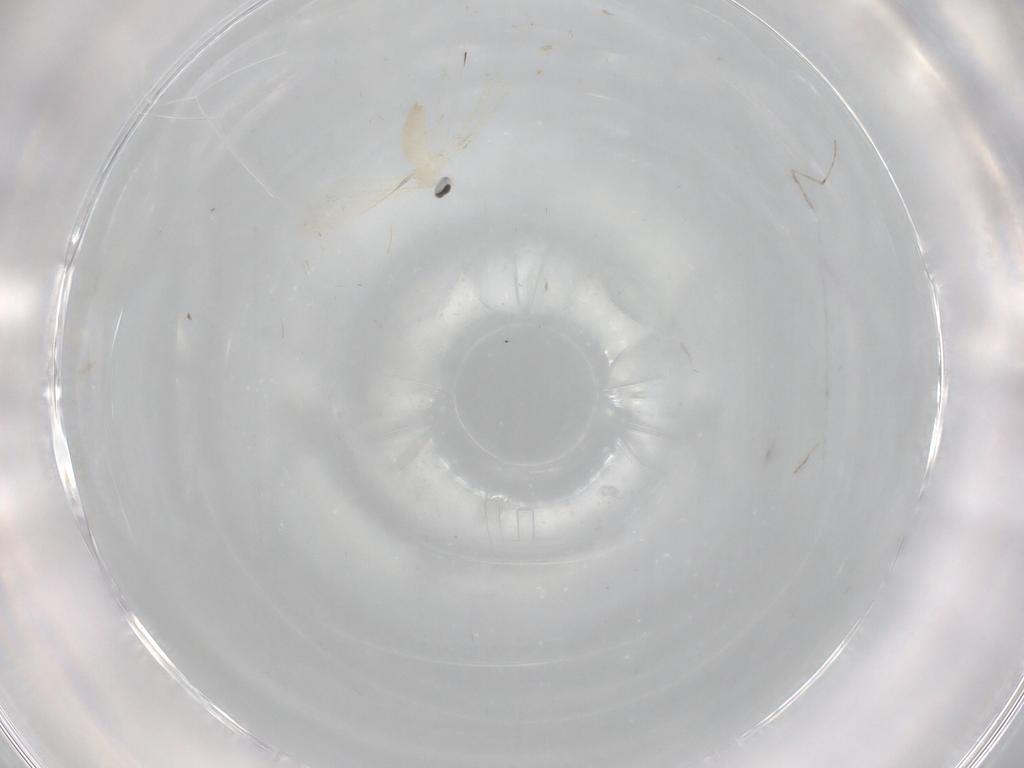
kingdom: Animalia
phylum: Arthropoda
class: Insecta
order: Diptera
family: Cecidomyiidae
